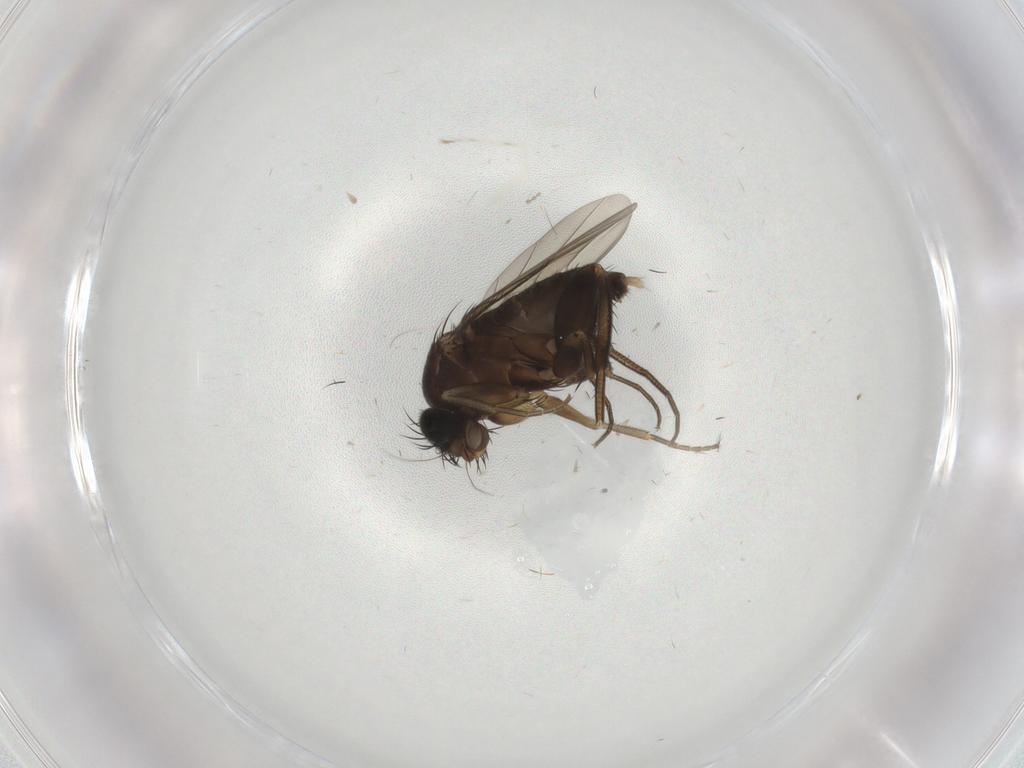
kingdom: Animalia
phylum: Arthropoda
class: Insecta
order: Diptera
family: Cecidomyiidae
